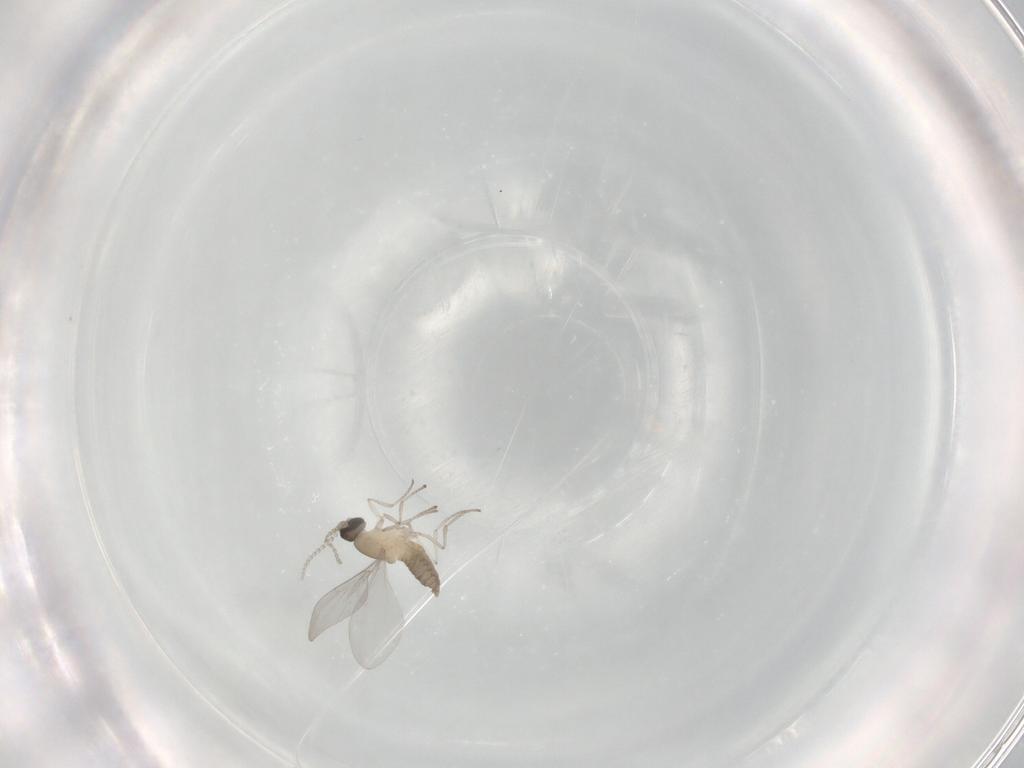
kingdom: Animalia
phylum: Arthropoda
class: Insecta
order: Diptera
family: Cecidomyiidae
